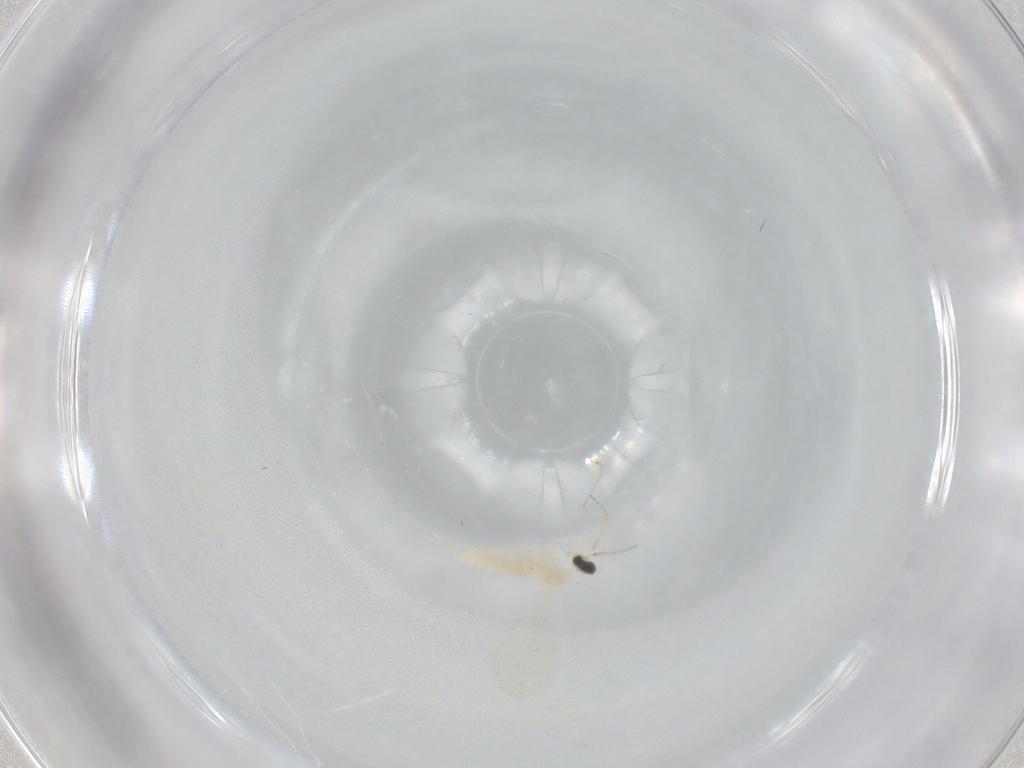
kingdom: Animalia
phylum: Arthropoda
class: Insecta
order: Diptera
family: Cecidomyiidae
